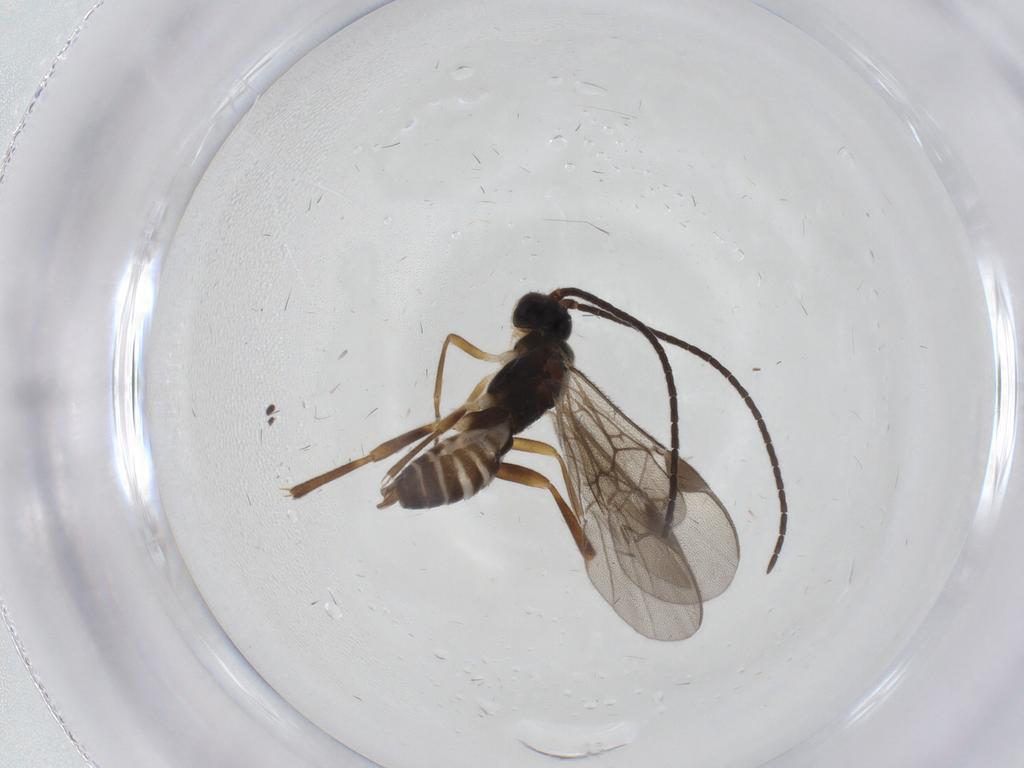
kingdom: Animalia
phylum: Arthropoda
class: Insecta
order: Hymenoptera
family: Braconidae
